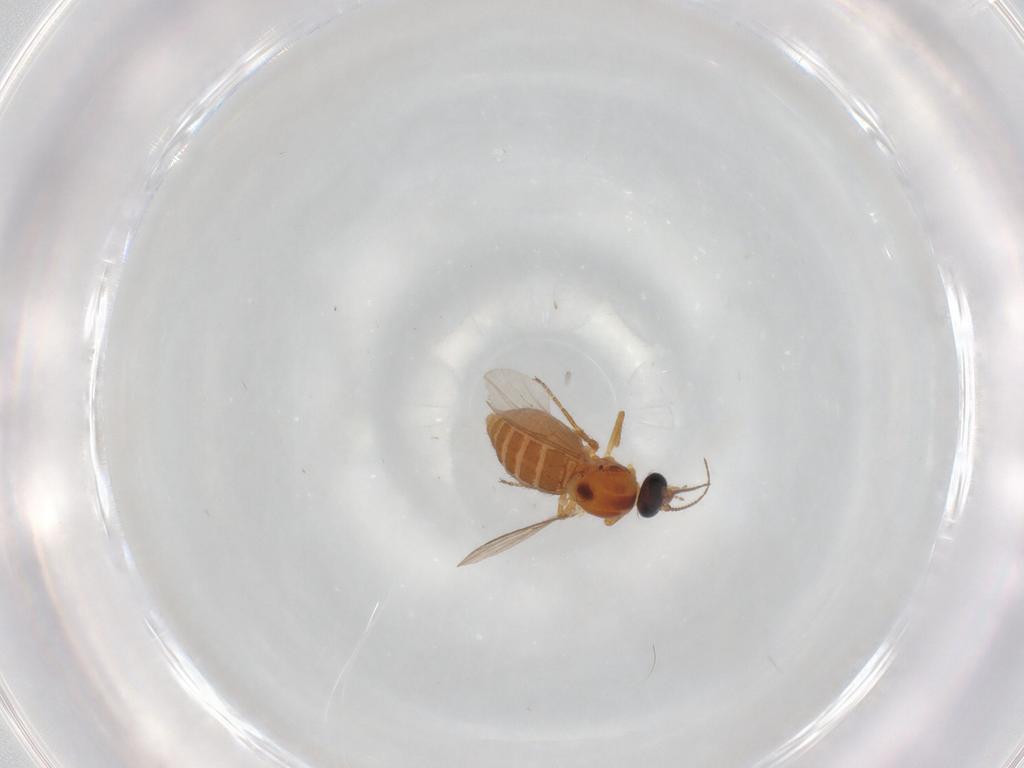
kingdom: Animalia
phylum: Arthropoda
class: Insecta
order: Diptera
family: Ceratopogonidae
